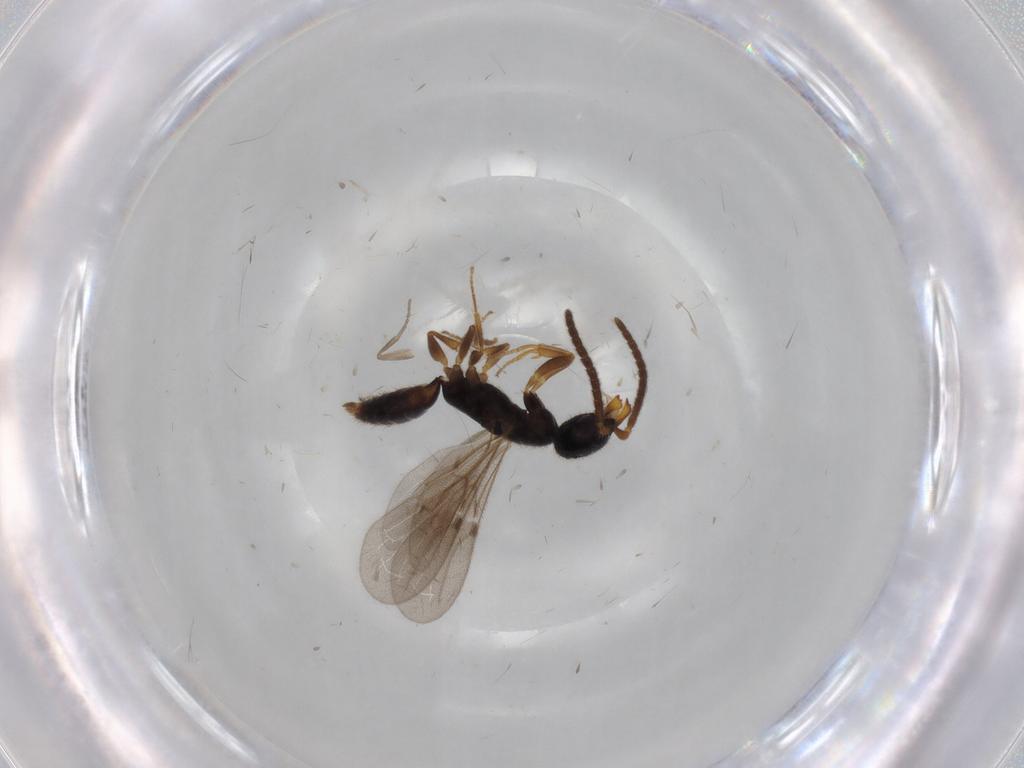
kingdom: Animalia
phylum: Arthropoda
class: Insecta
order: Hymenoptera
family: Bethylidae
